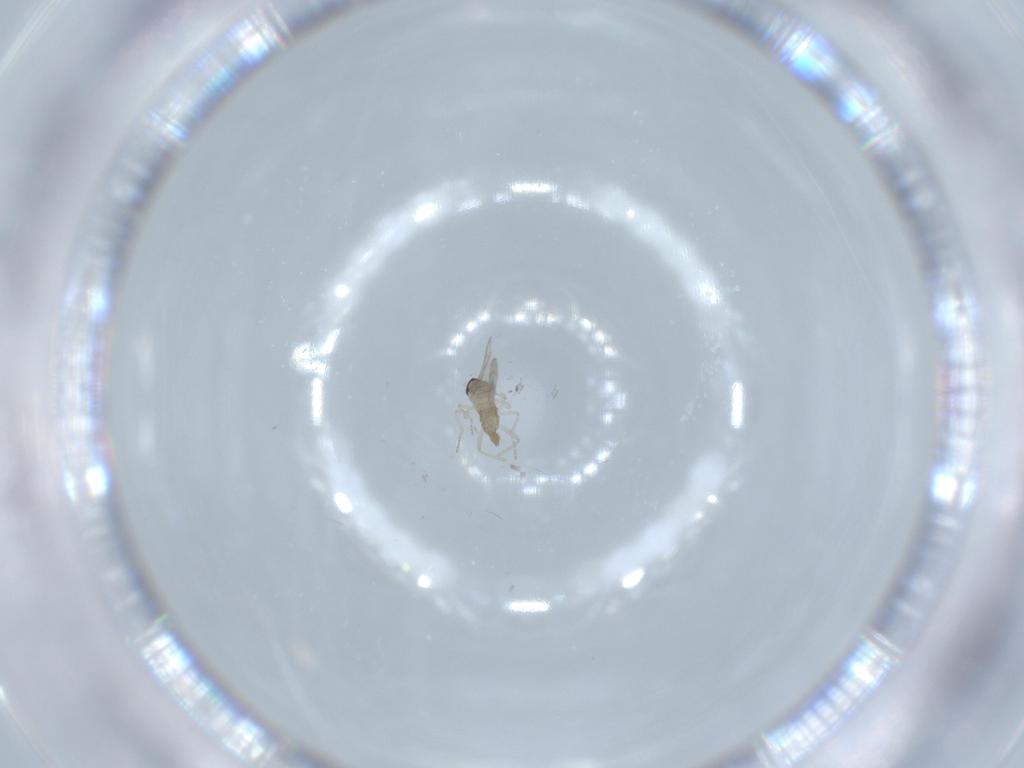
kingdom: Animalia
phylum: Arthropoda
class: Insecta
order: Diptera
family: Cecidomyiidae
